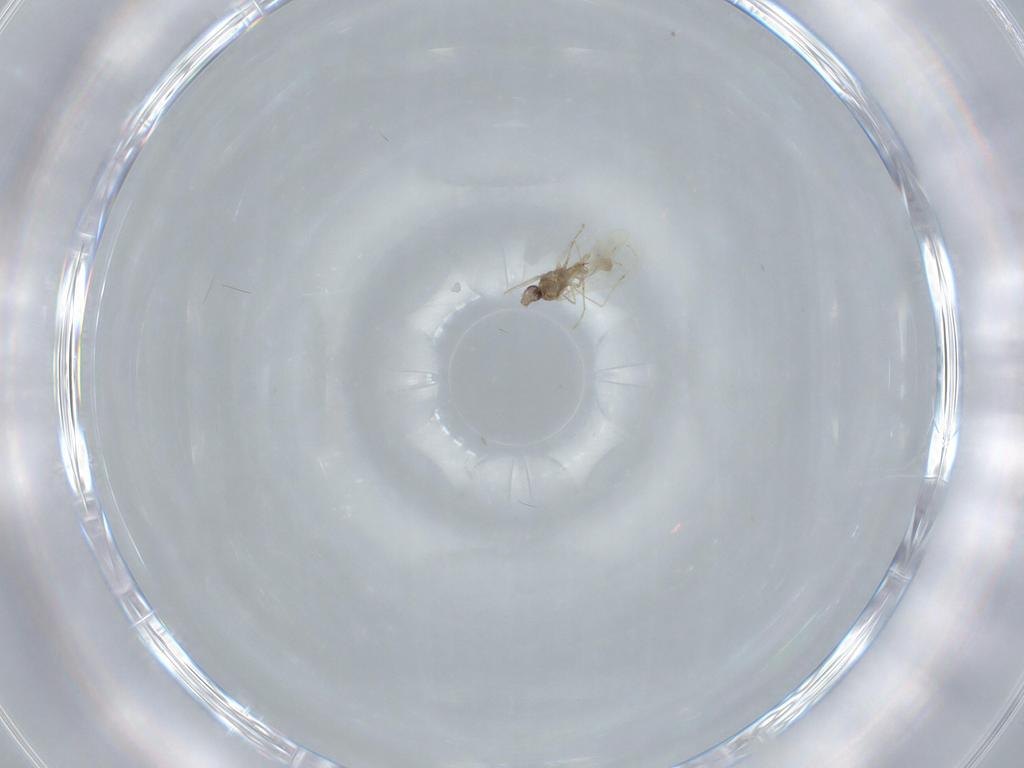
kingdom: Animalia
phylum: Arthropoda
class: Insecta
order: Diptera
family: Cecidomyiidae
